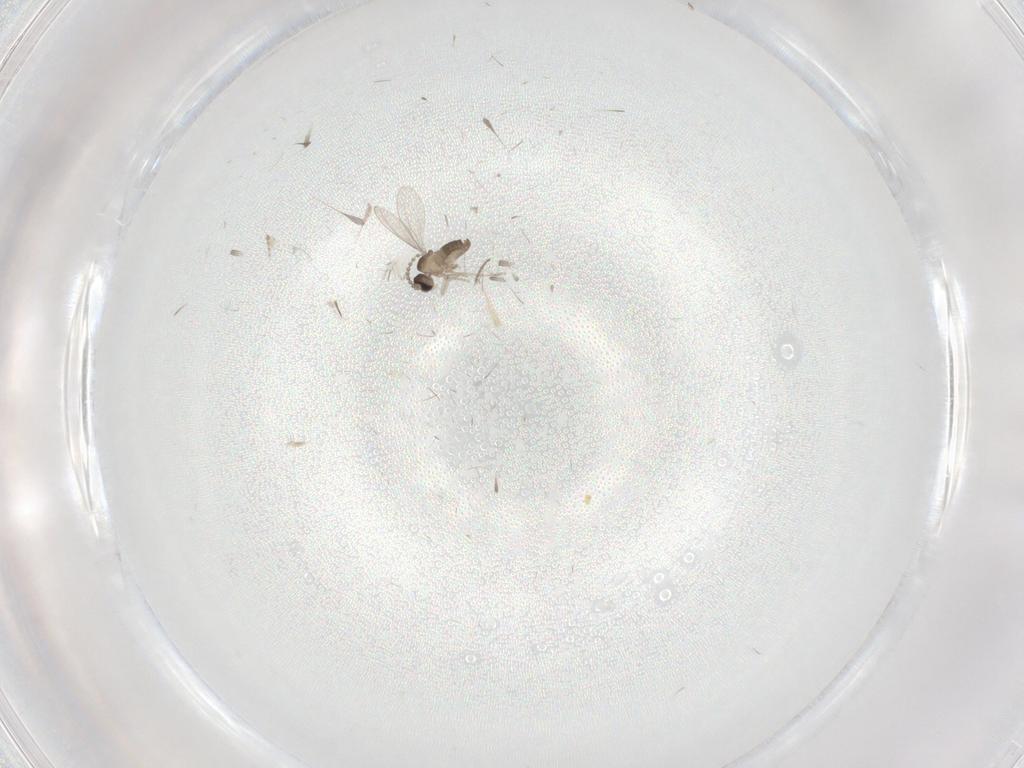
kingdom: Animalia
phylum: Arthropoda
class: Insecta
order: Diptera
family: Cecidomyiidae
